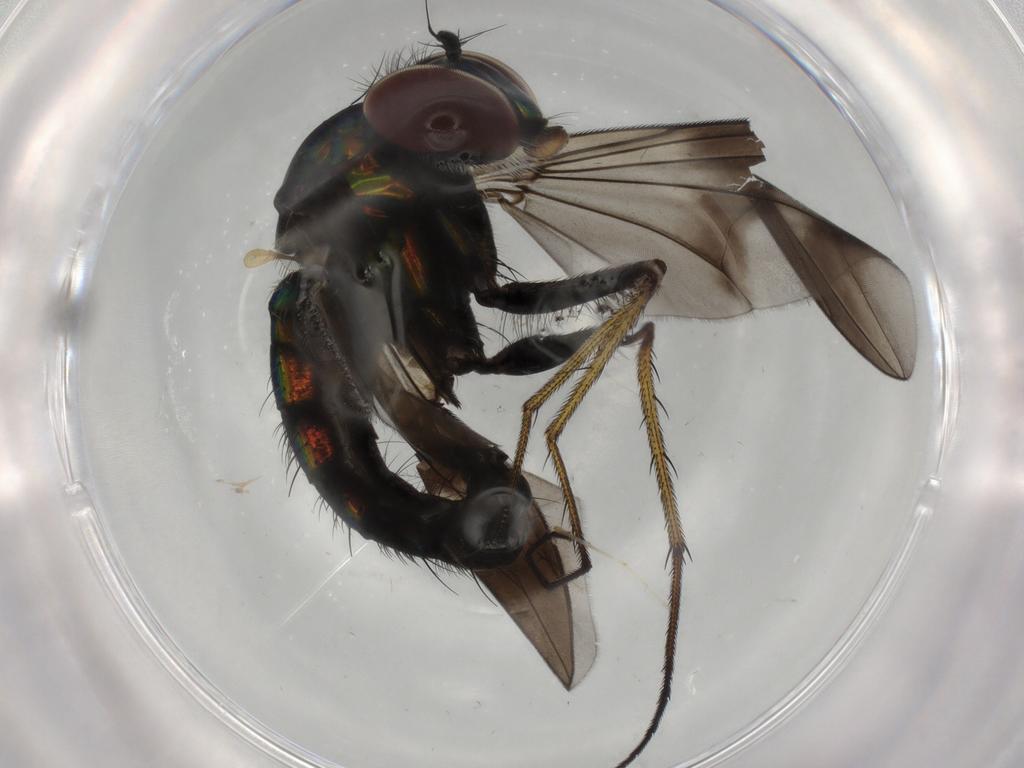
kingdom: Animalia
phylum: Arthropoda
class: Insecta
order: Diptera
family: Dolichopodidae
